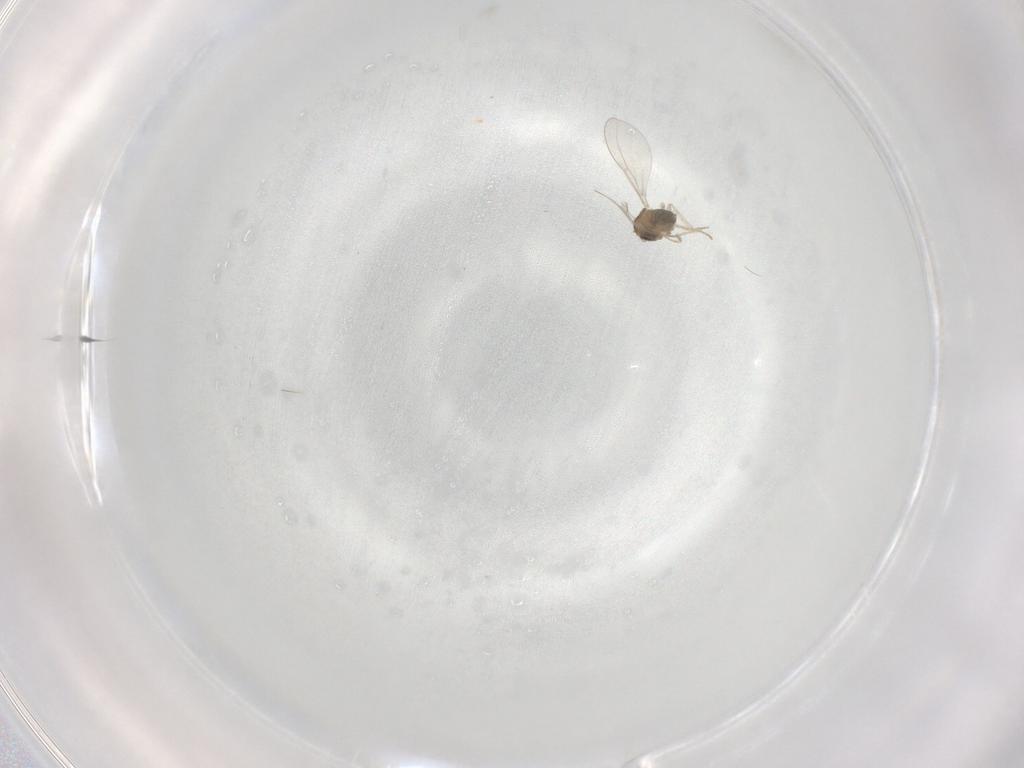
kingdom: Animalia
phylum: Arthropoda
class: Insecta
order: Diptera
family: Cecidomyiidae
